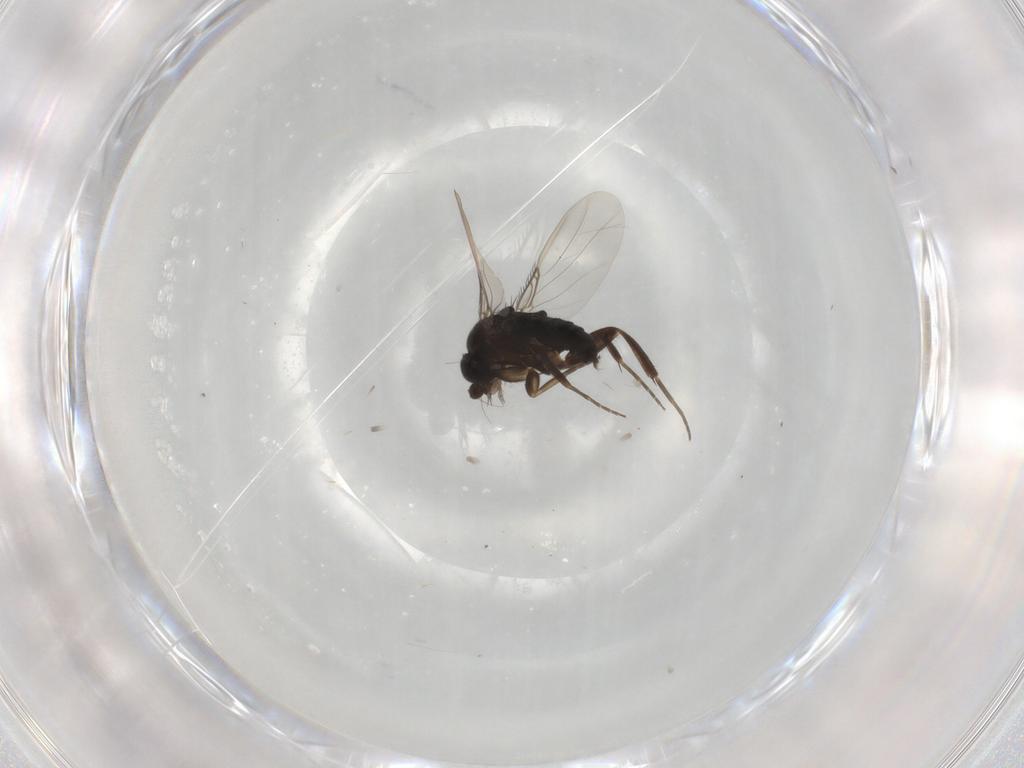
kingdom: Animalia
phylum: Arthropoda
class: Insecta
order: Diptera
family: Phoridae
